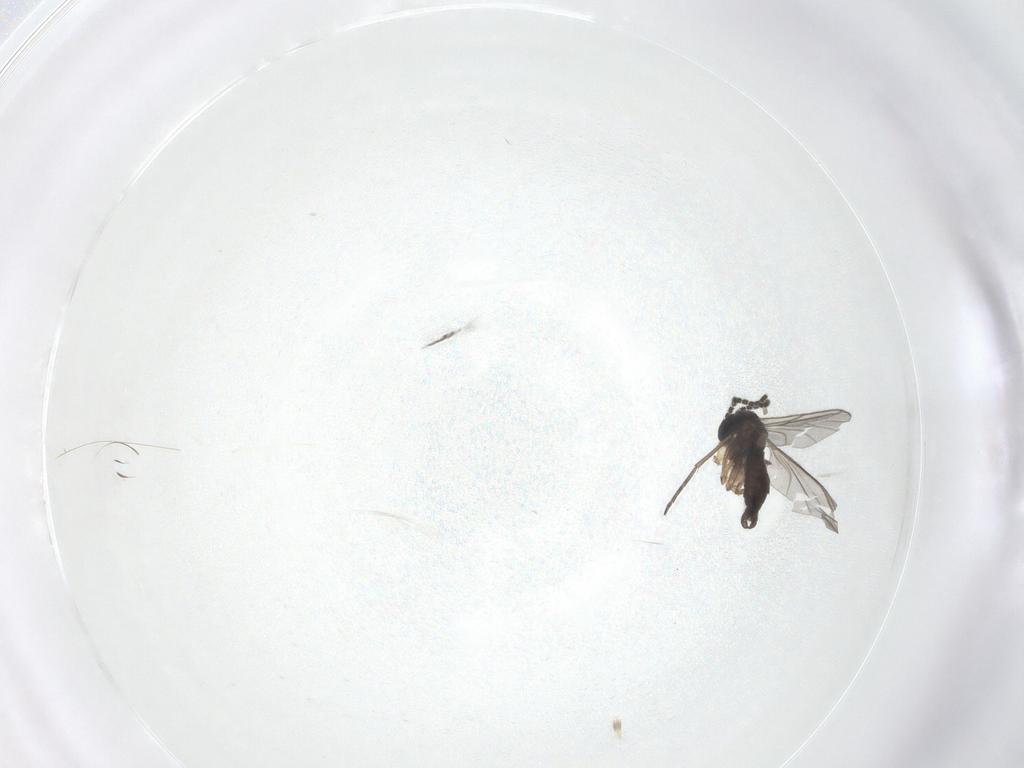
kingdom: Animalia
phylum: Arthropoda
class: Insecta
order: Diptera
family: Sciaridae
